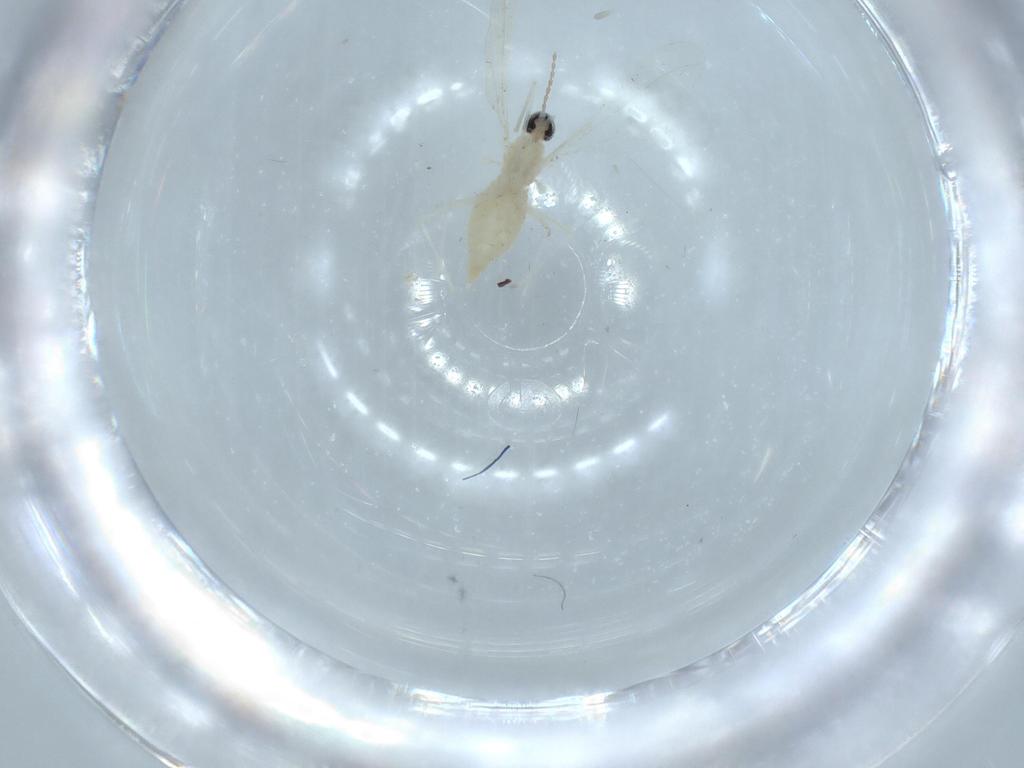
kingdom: Animalia
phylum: Arthropoda
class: Insecta
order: Diptera
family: Cecidomyiidae
